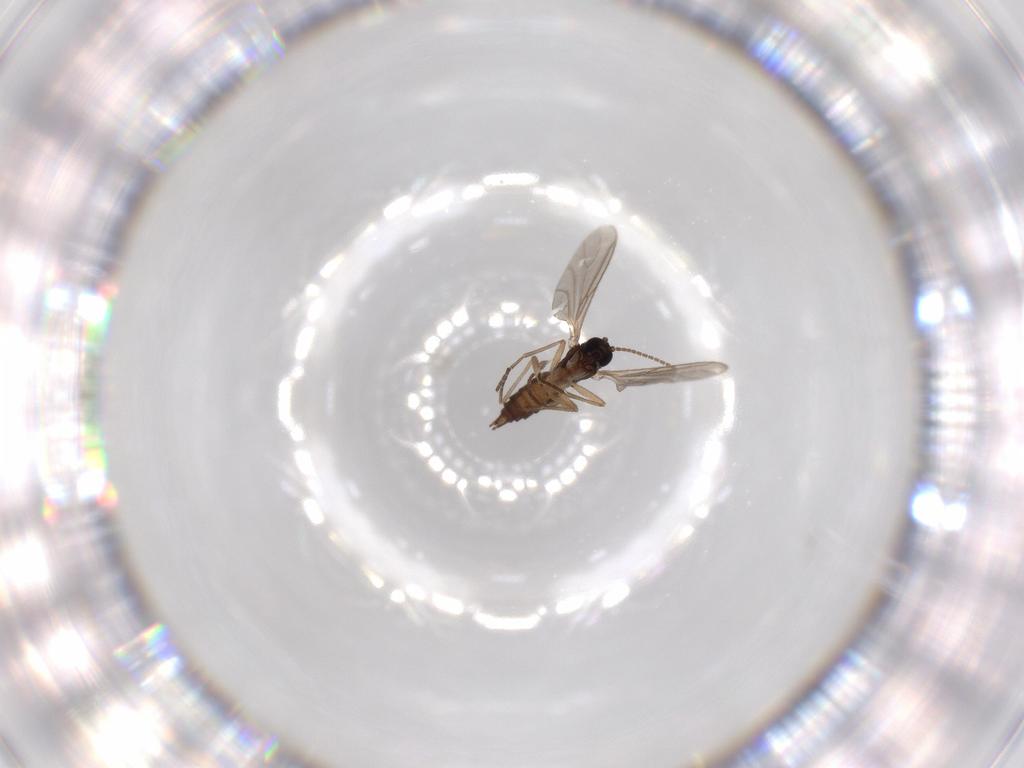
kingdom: Animalia
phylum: Arthropoda
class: Insecta
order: Diptera
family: Sciaridae
